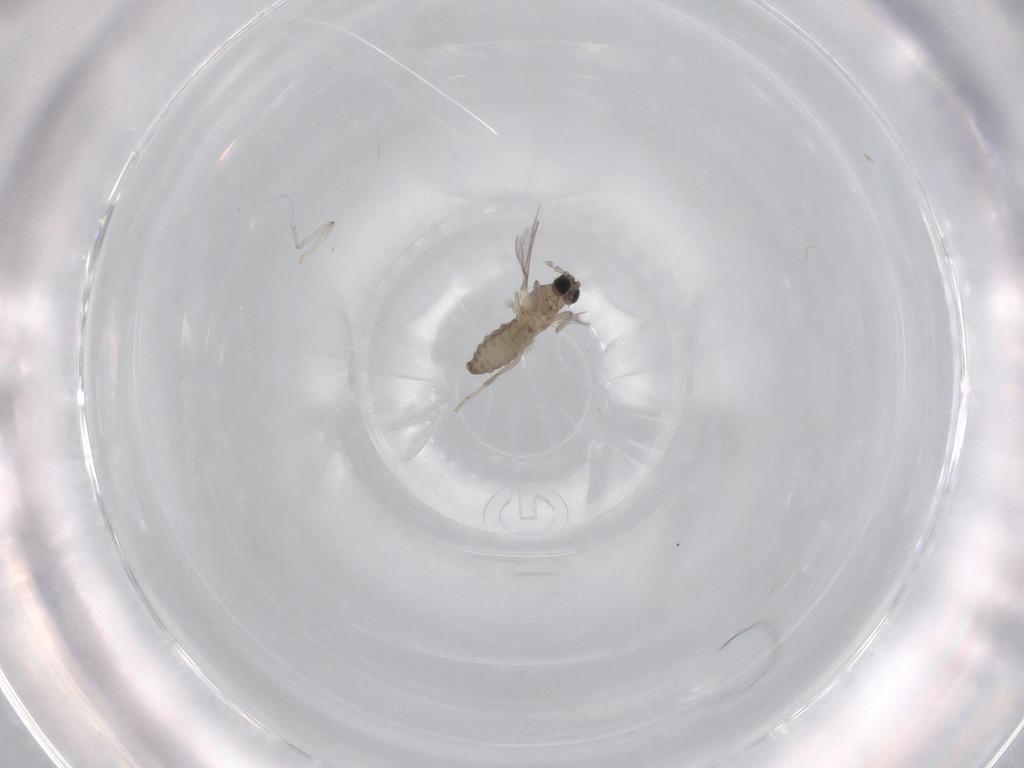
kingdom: Animalia
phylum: Arthropoda
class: Insecta
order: Diptera
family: Cecidomyiidae
